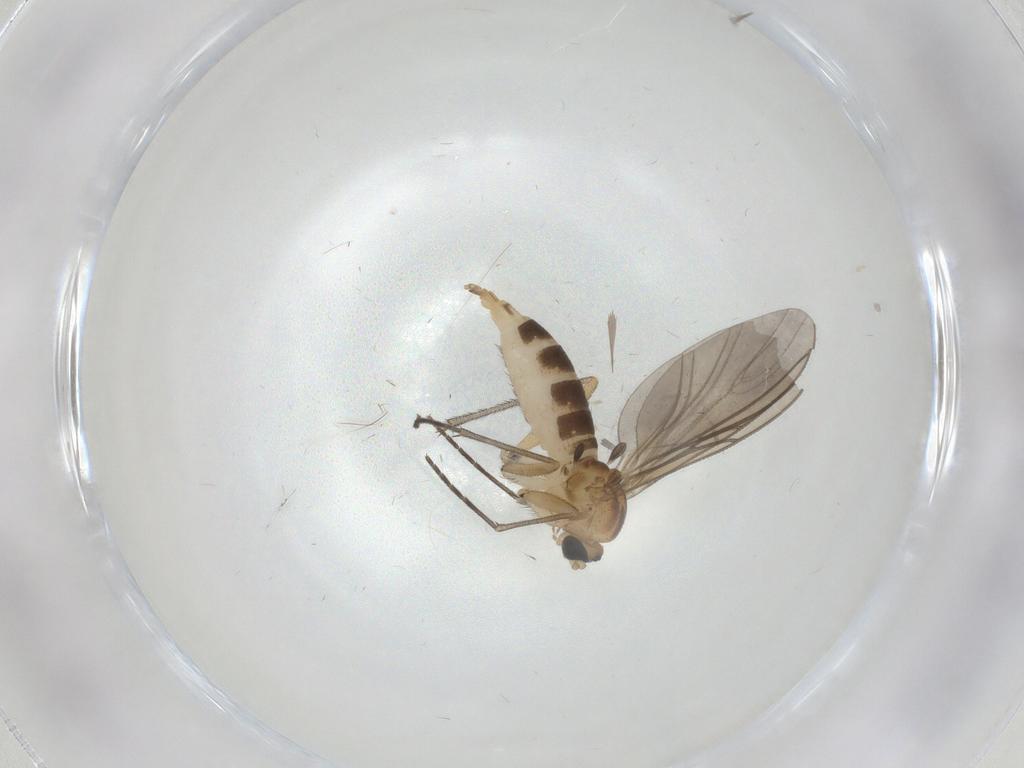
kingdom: Animalia
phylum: Arthropoda
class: Insecta
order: Diptera
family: Sciaridae
